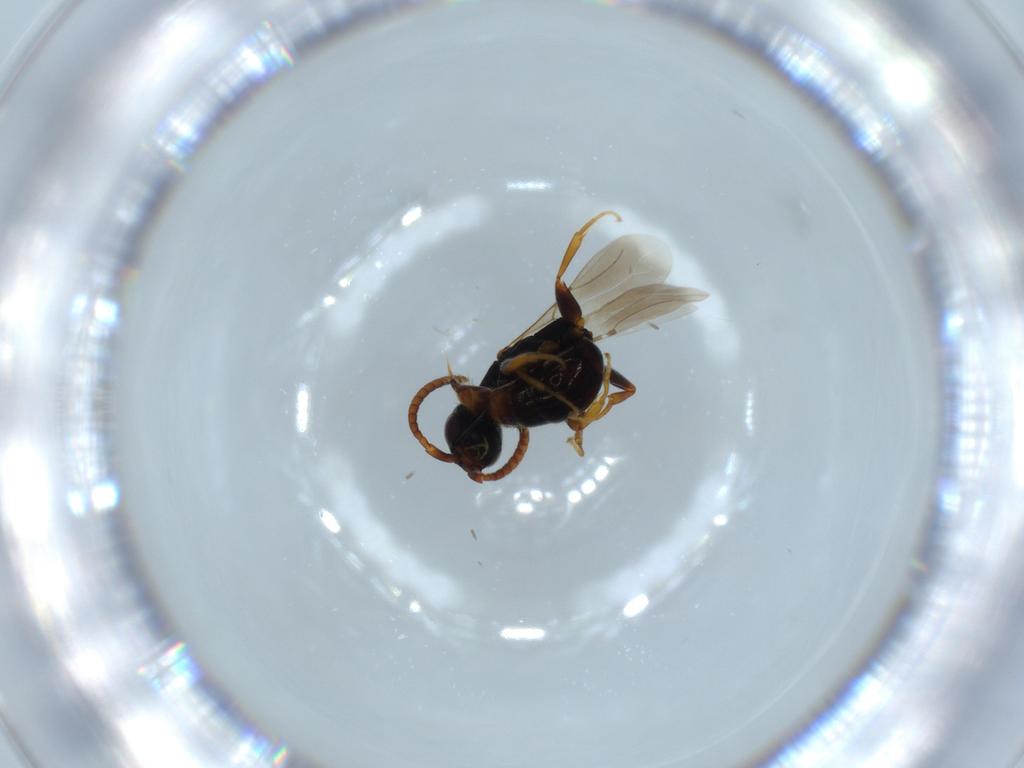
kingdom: Animalia
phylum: Arthropoda
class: Insecta
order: Hymenoptera
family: Bethylidae
